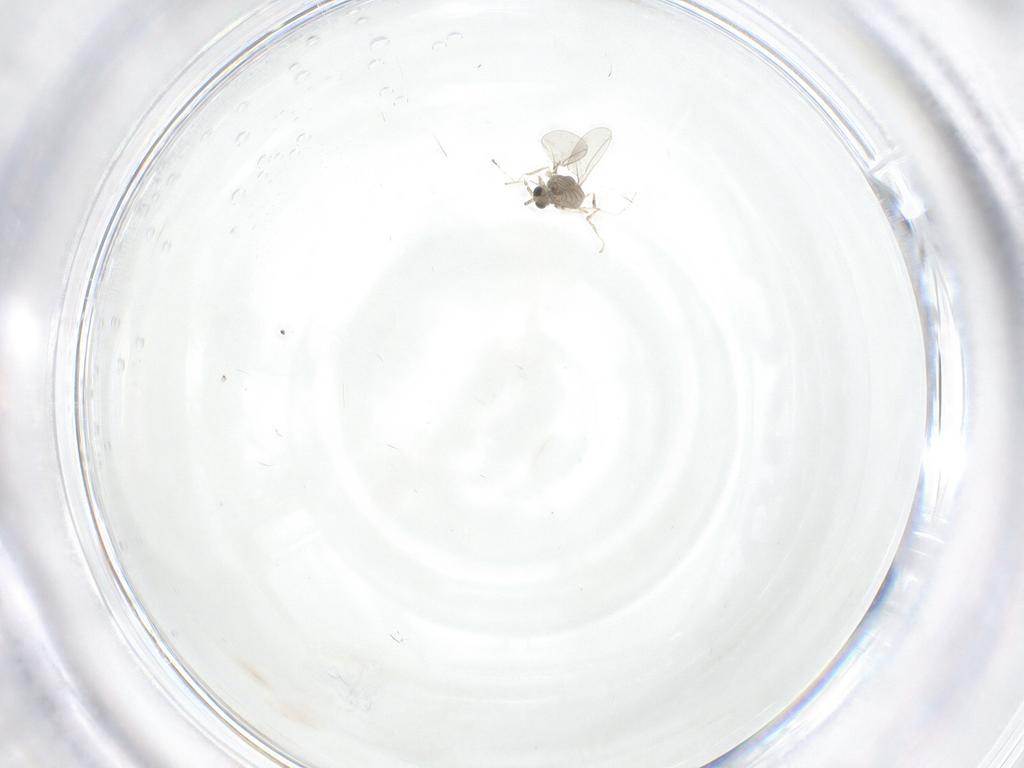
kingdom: Animalia
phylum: Arthropoda
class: Insecta
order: Diptera
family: Cecidomyiidae
